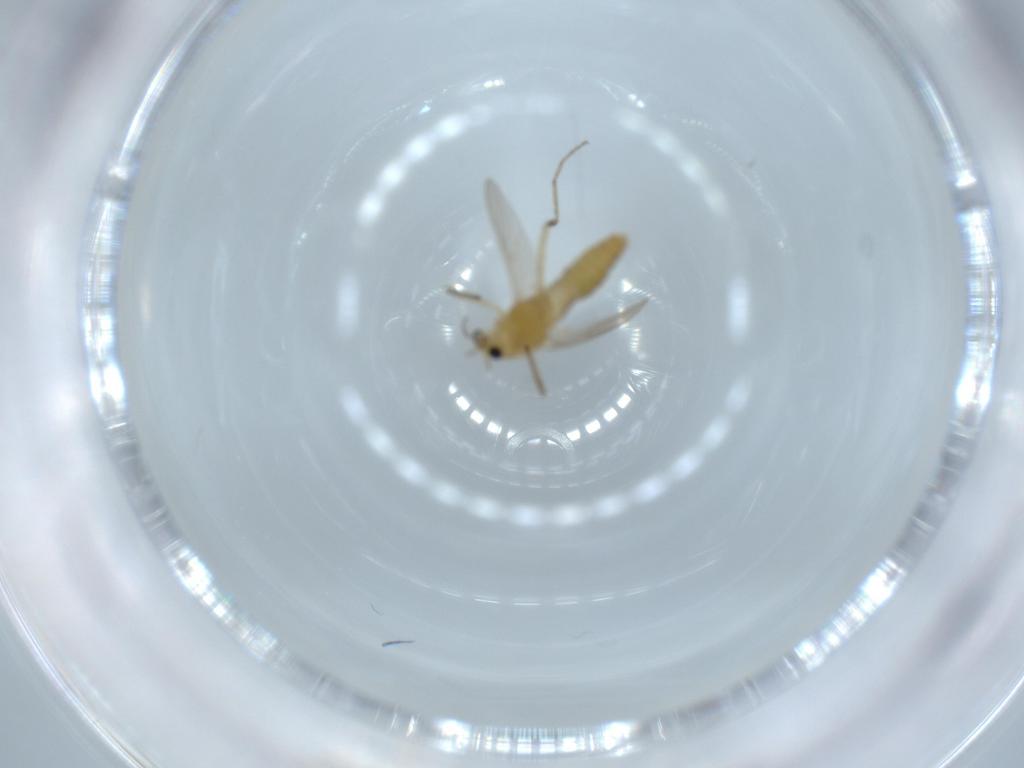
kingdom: Animalia
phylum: Arthropoda
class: Insecta
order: Diptera
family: Chironomidae
